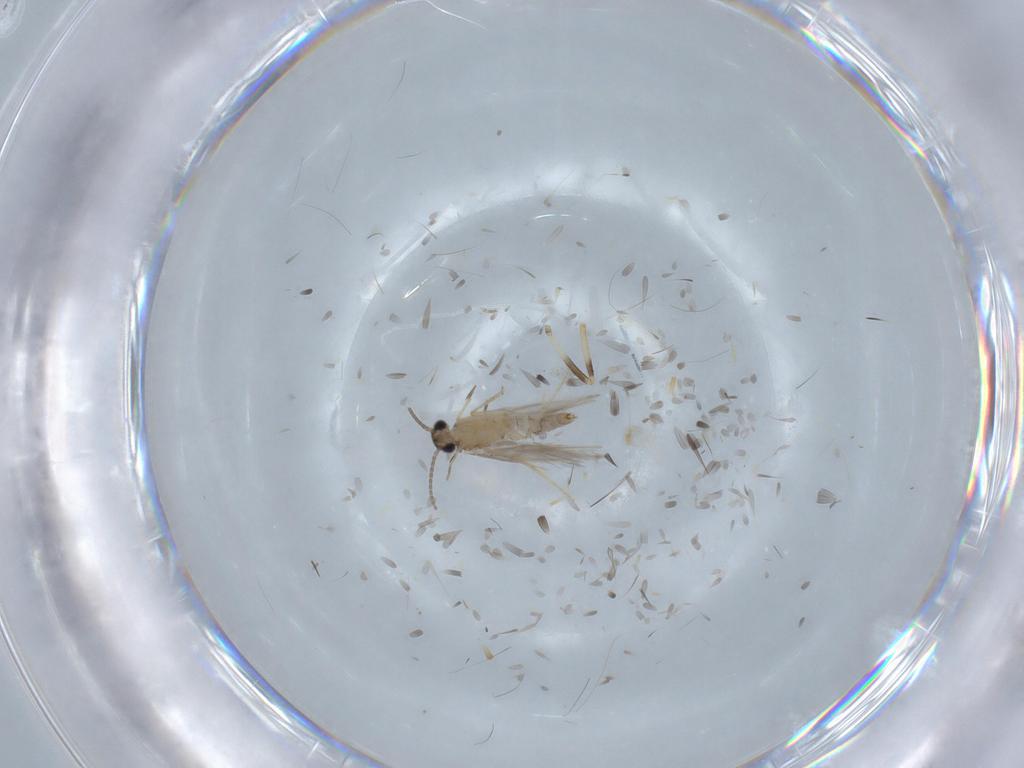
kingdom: Animalia
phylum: Arthropoda
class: Insecta
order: Trichoptera
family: Hydroptilidae
